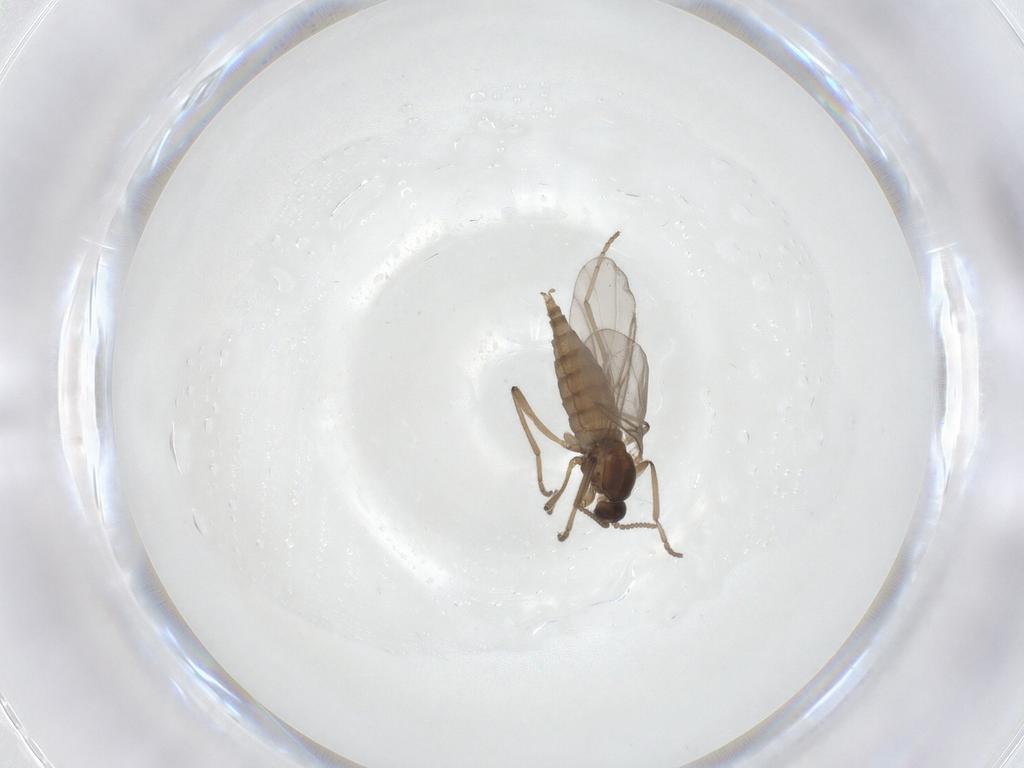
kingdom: Animalia
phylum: Arthropoda
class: Insecta
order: Diptera
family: Cecidomyiidae
